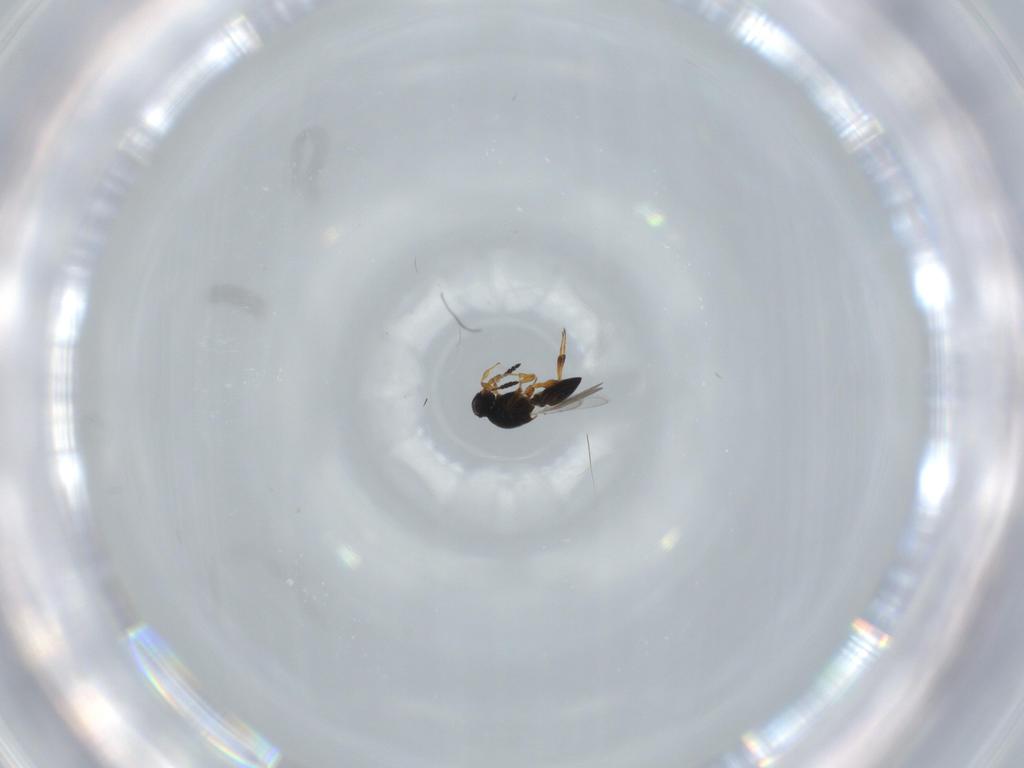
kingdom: Animalia
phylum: Arthropoda
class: Insecta
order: Hymenoptera
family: Platygastridae
